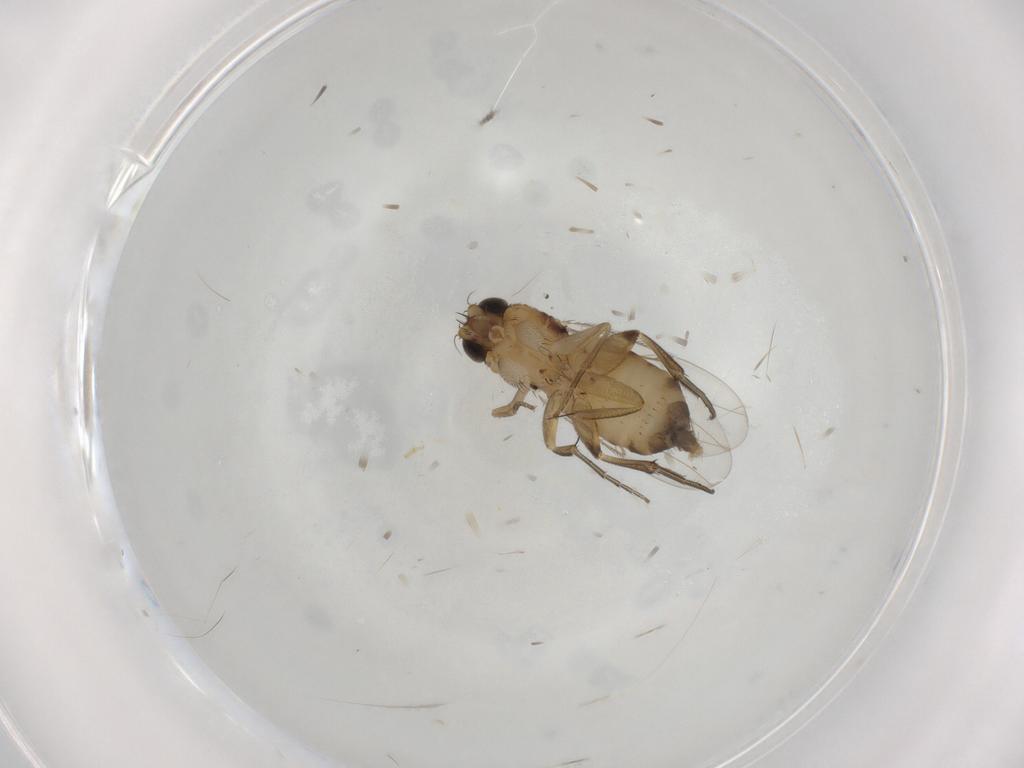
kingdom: Animalia
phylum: Arthropoda
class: Insecta
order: Diptera
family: Phoridae
